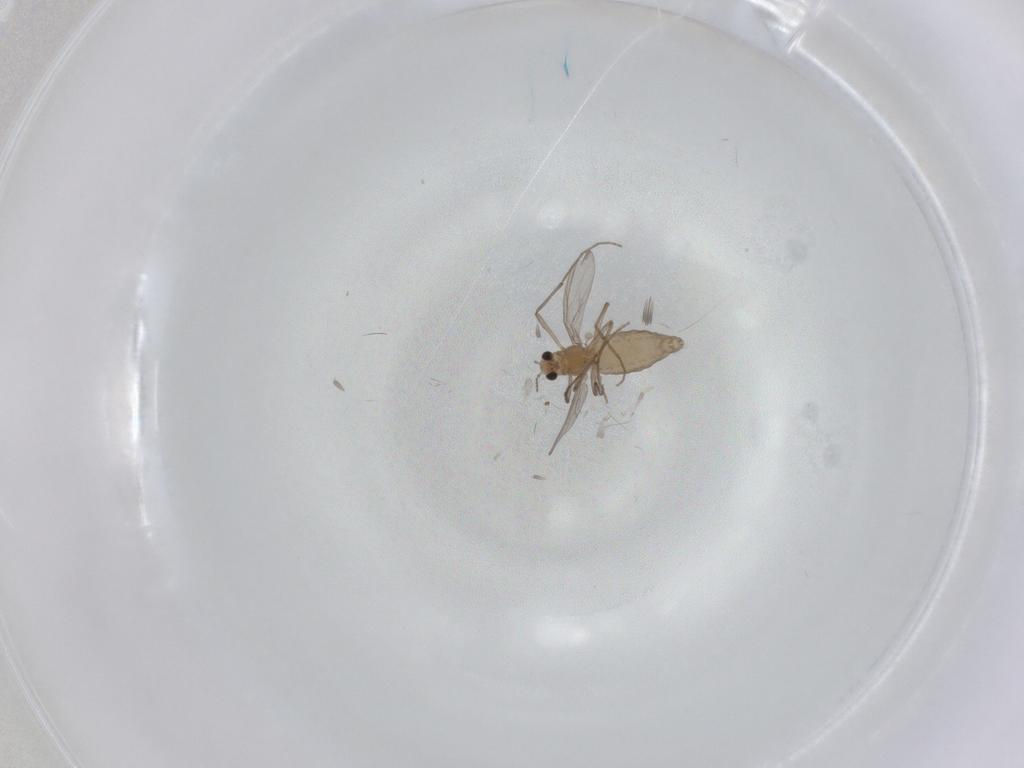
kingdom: Animalia
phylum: Arthropoda
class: Insecta
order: Diptera
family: Chironomidae
